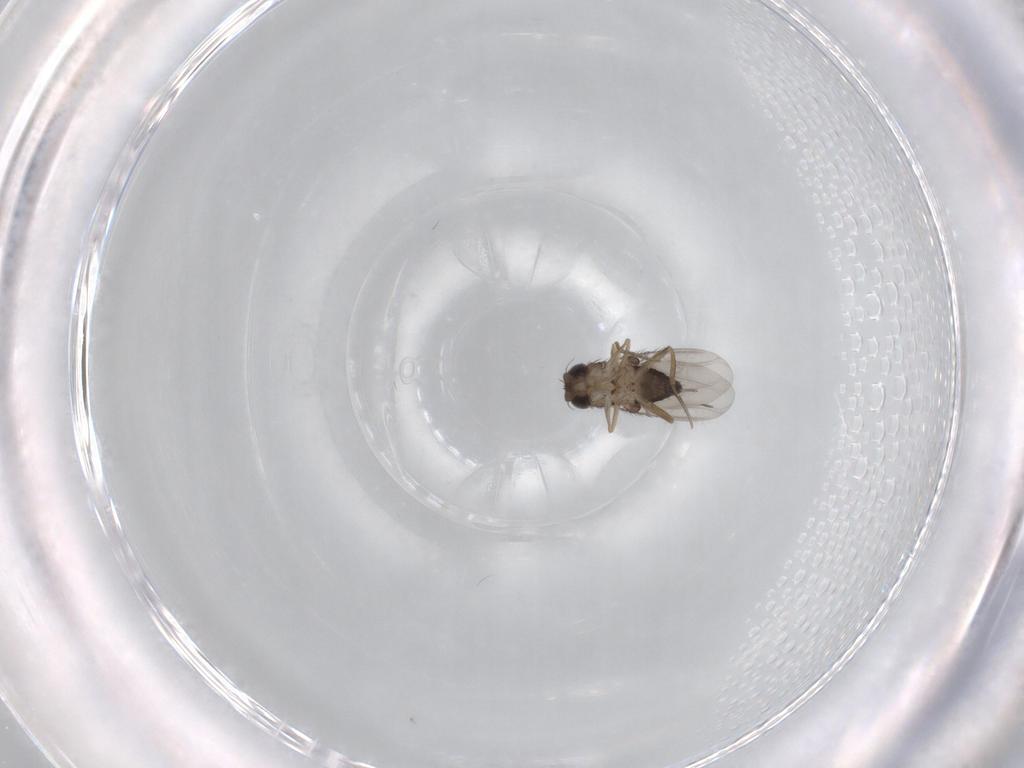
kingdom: Animalia
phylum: Arthropoda
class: Insecta
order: Diptera
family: Phoridae
